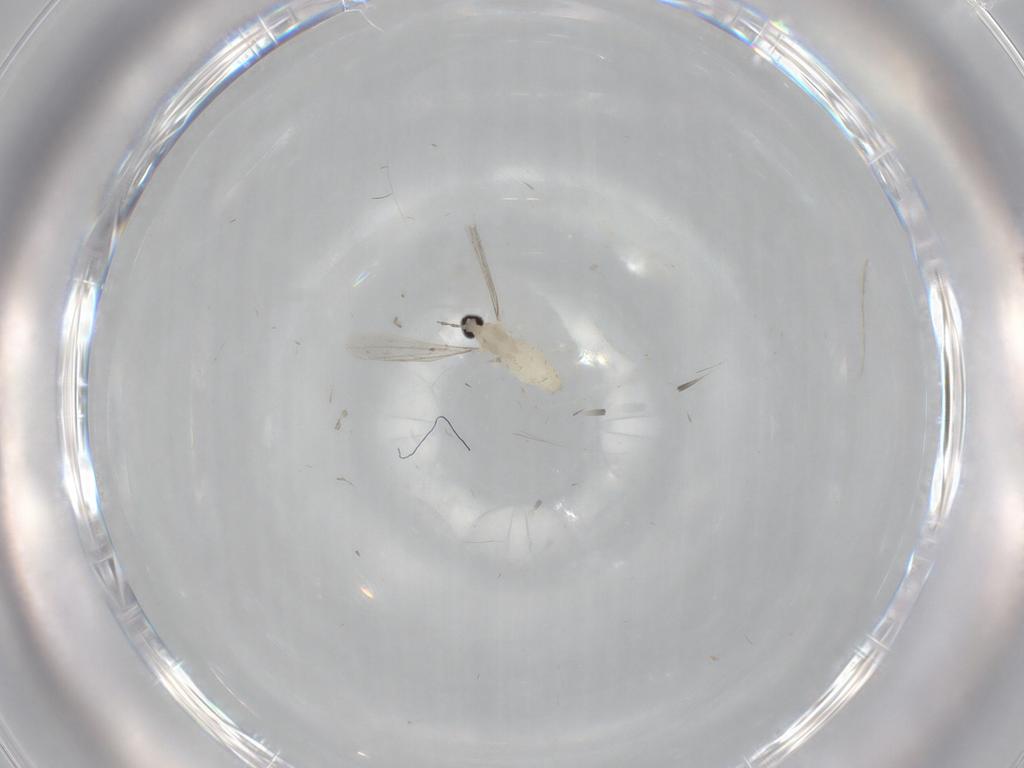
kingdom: Animalia
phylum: Arthropoda
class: Insecta
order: Diptera
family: Cecidomyiidae
